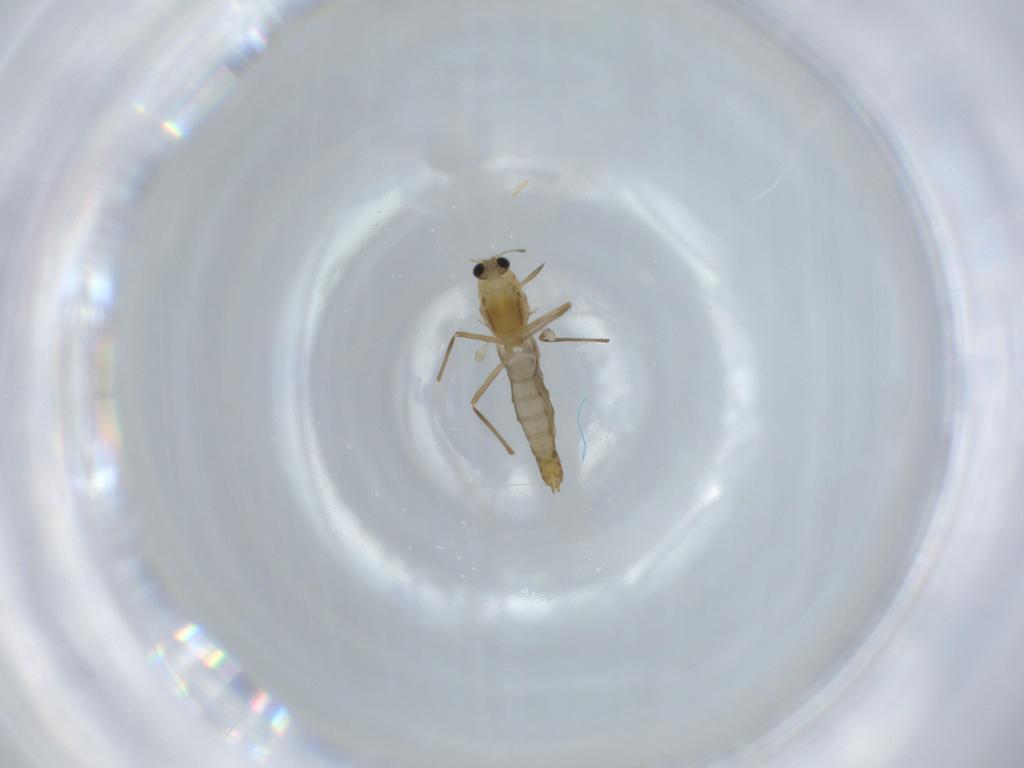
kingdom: Animalia
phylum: Arthropoda
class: Insecta
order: Diptera
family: Chironomidae
